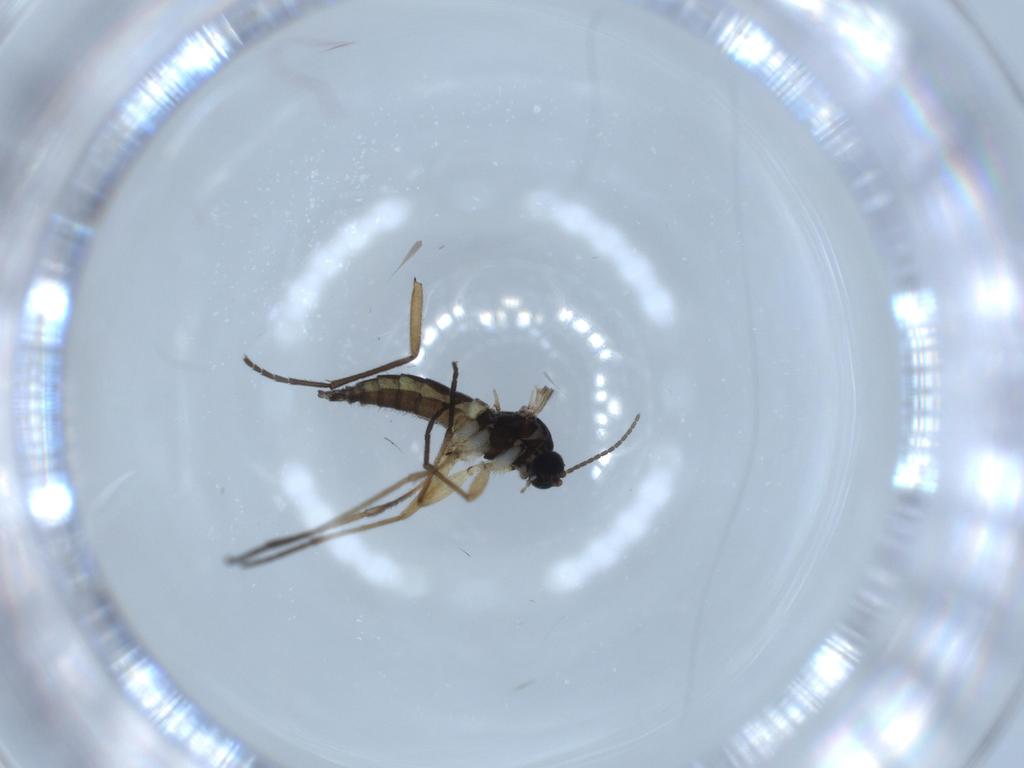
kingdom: Animalia
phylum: Arthropoda
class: Insecta
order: Diptera
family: Sciaridae
